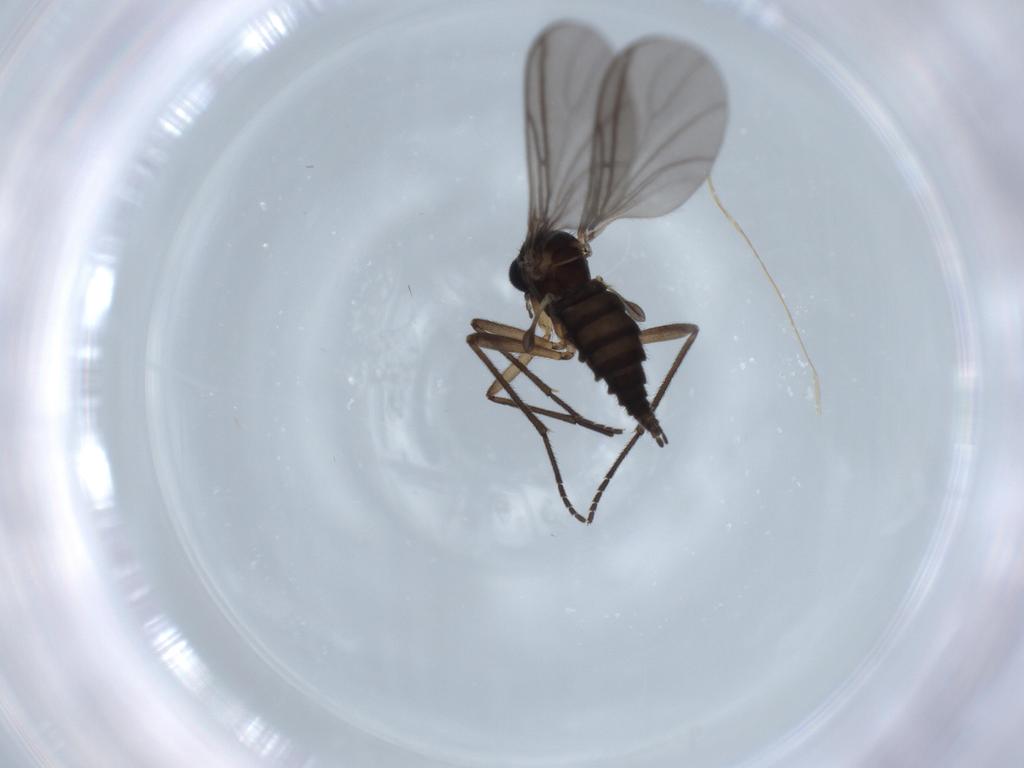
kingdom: Animalia
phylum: Arthropoda
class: Insecta
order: Diptera
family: Sciaridae
